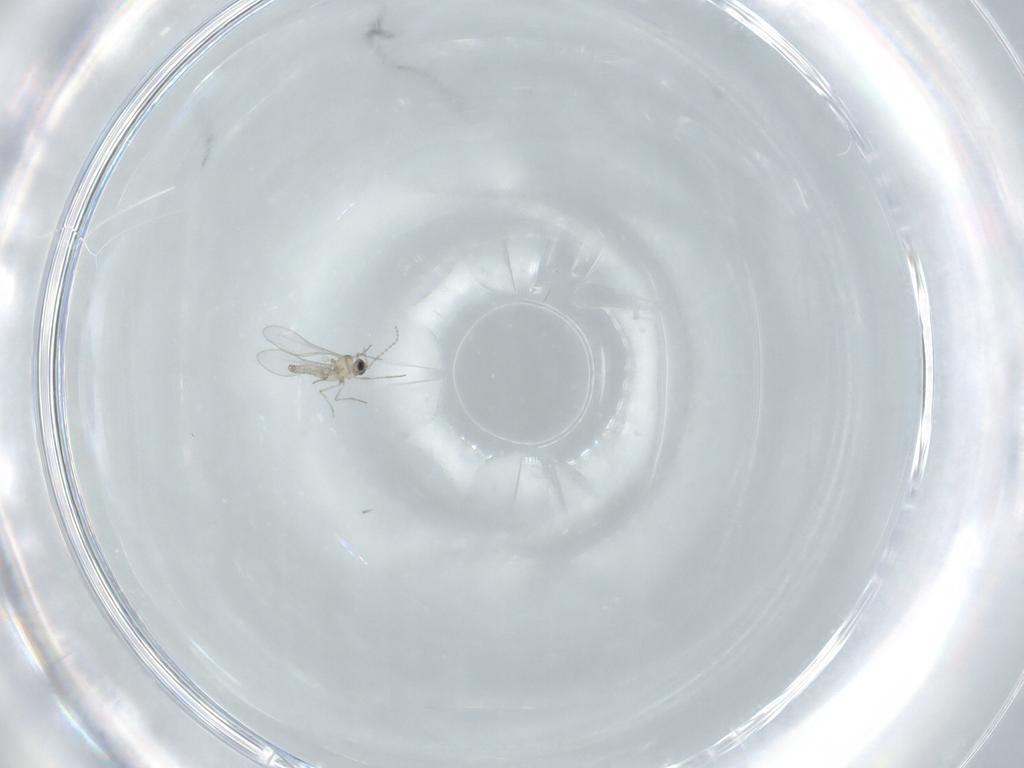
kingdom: Animalia
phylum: Arthropoda
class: Insecta
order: Diptera
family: Cecidomyiidae
